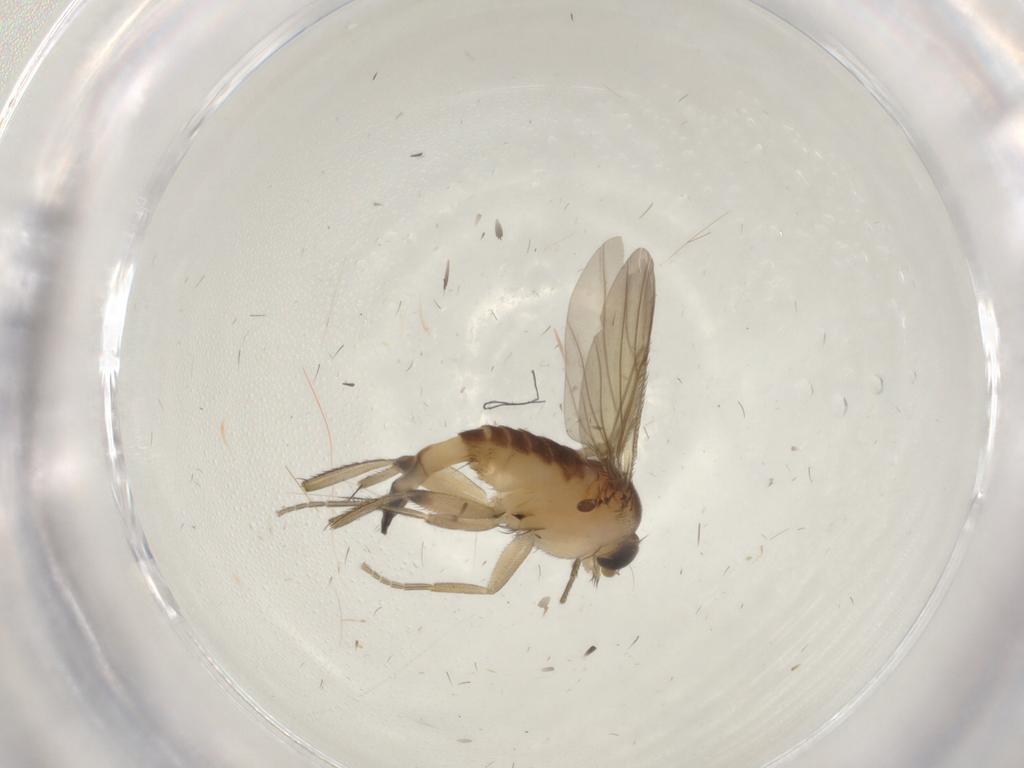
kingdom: Animalia
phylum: Arthropoda
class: Insecta
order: Diptera
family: Phoridae
